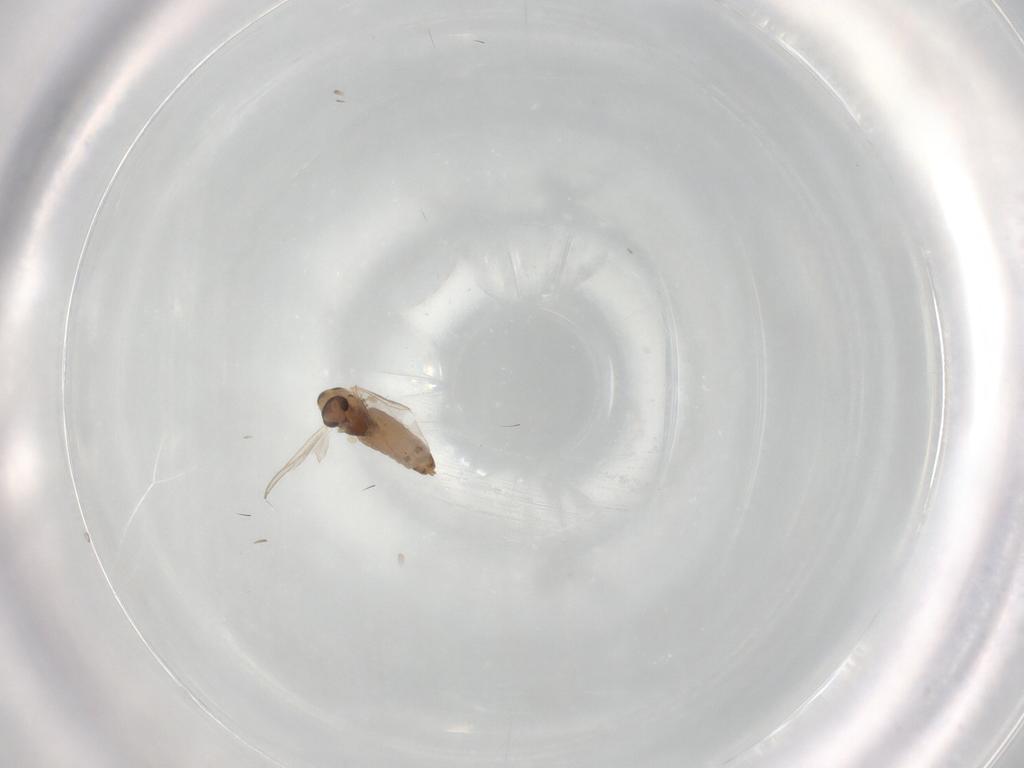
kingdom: Animalia
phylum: Arthropoda
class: Insecta
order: Diptera
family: Chironomidae
